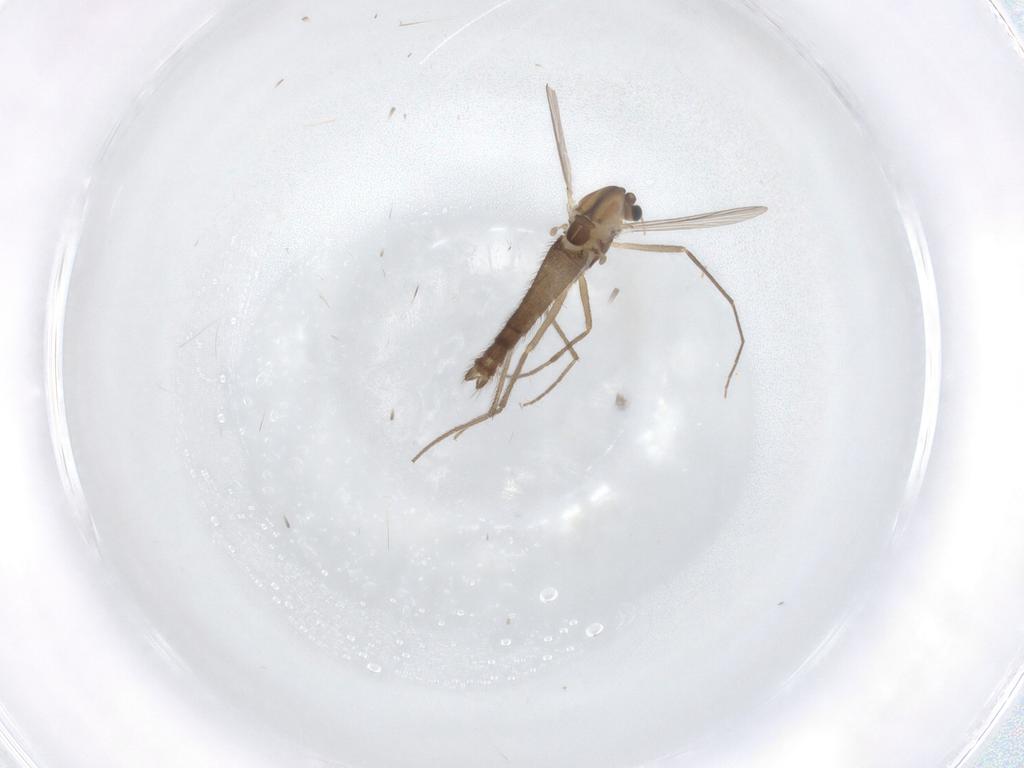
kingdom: Animalia
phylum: Arthropoda
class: Insecta
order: Diptera
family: Chironomidae
